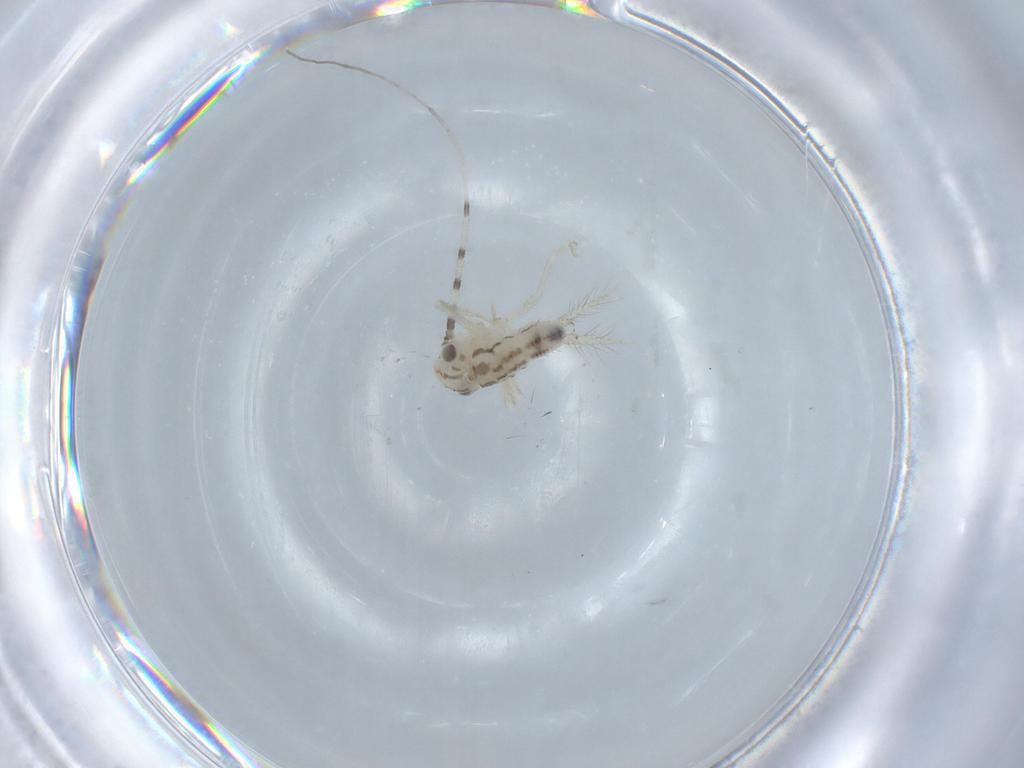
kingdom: Animalia
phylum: Arthropoda
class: Insecta
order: Orthoptera
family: Trigonidiidae
